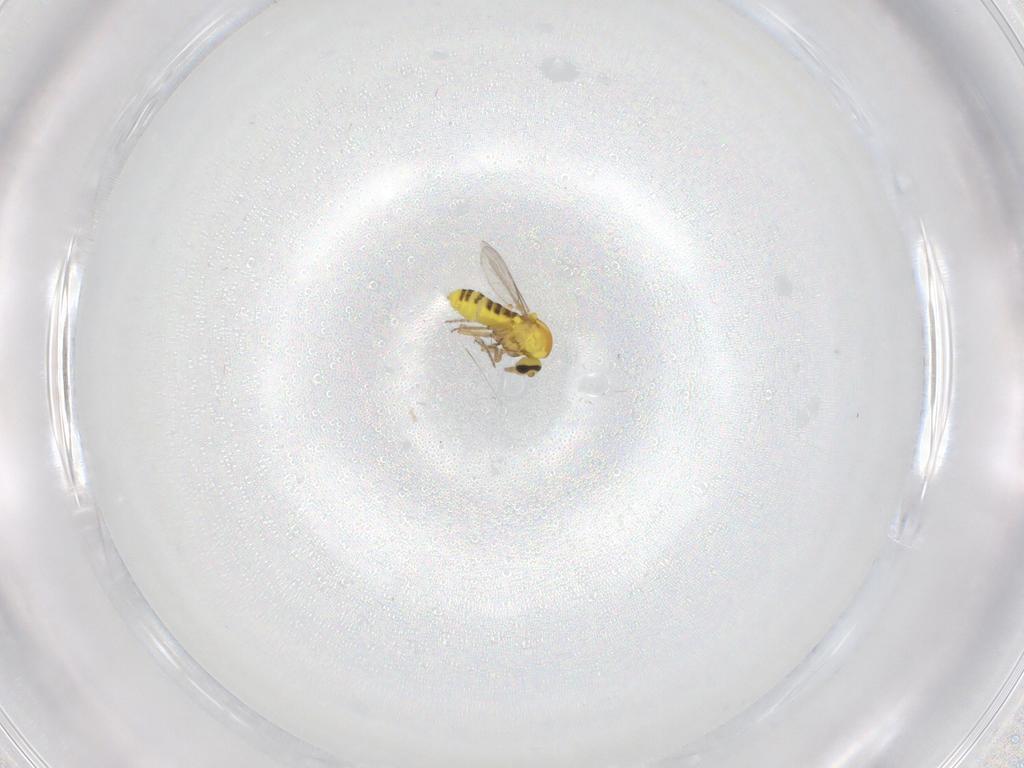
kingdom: Animalia
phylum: Arthropoda
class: Insecta
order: Diptera
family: Ceratopogonidae
